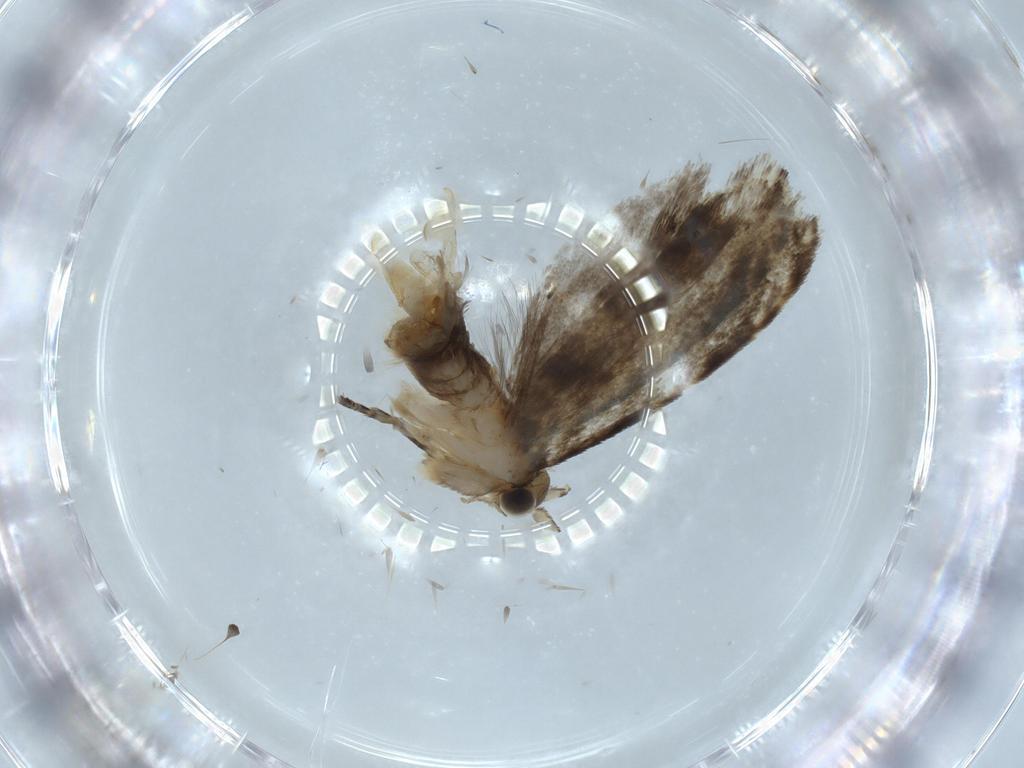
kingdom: Animalia
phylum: Arthropoda
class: Insecta
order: Lepidoptera
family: Tineidae
